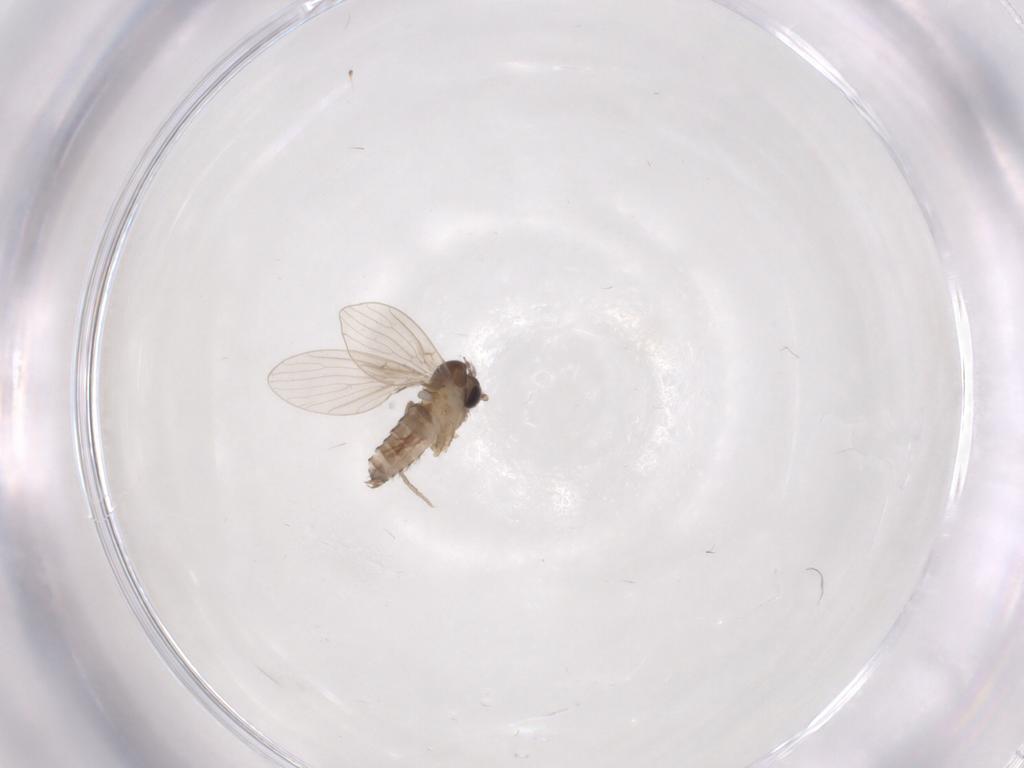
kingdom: Animalia
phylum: Arthropoda
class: Insecta
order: Diptera
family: Psychodidae
